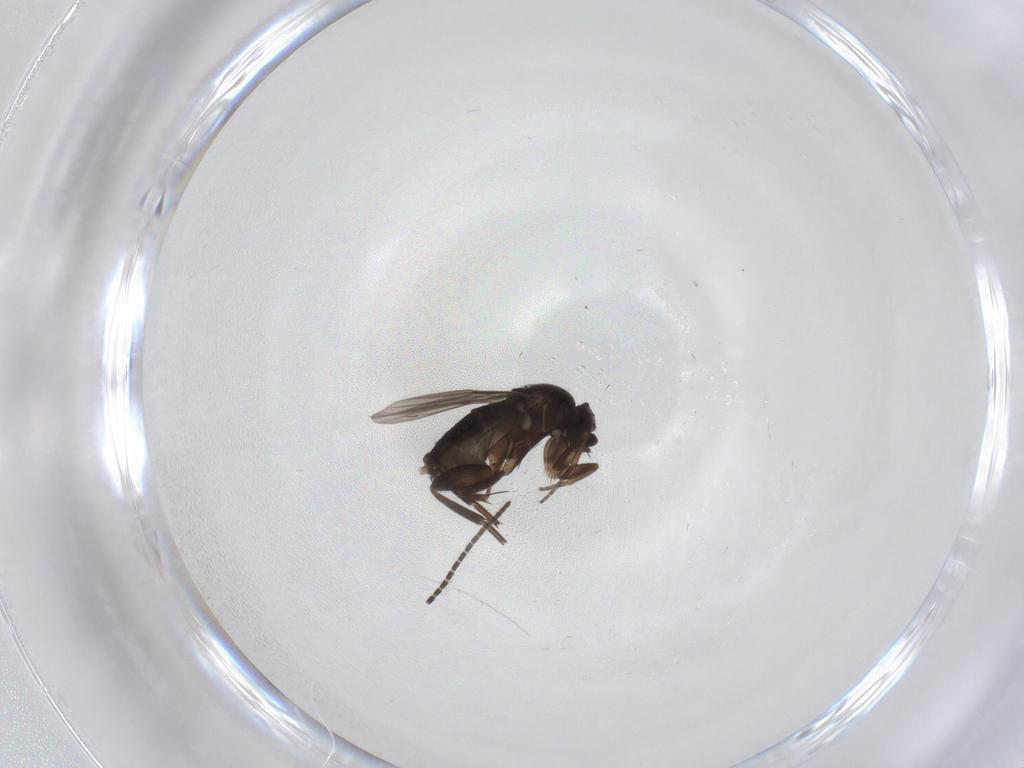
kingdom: Animalia
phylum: Arthropoda
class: Insecta
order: Diptera
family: Phoridae
